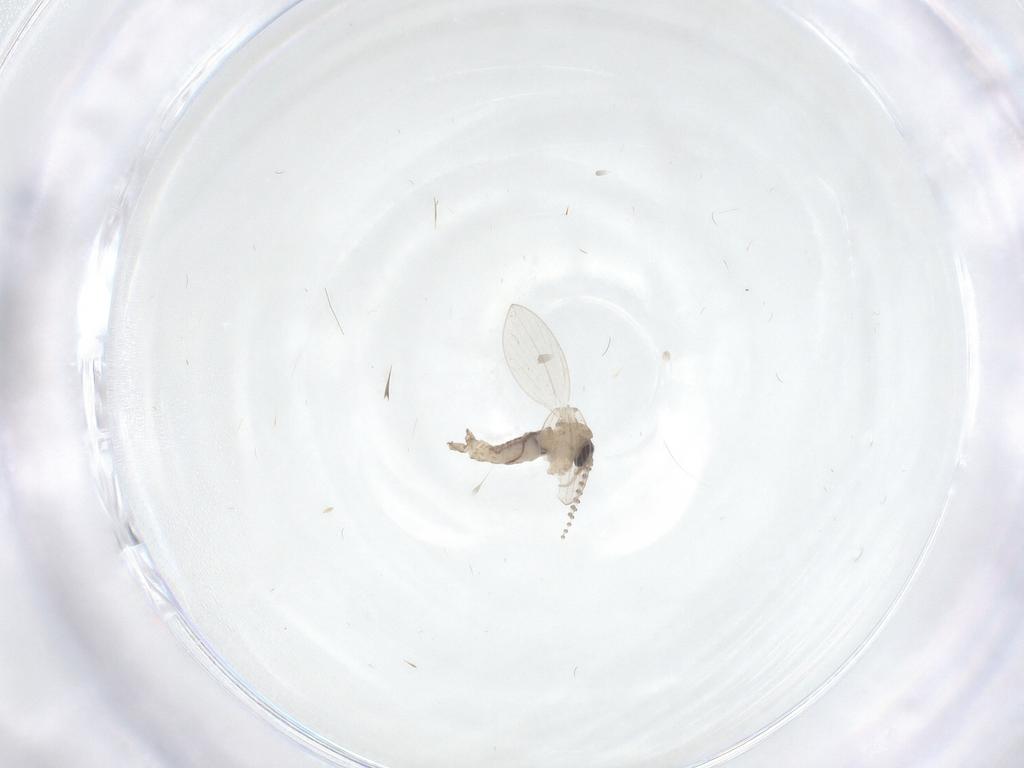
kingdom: Animalia
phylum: Arthropoda
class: Insecta
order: Diptera
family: Psychodidae
